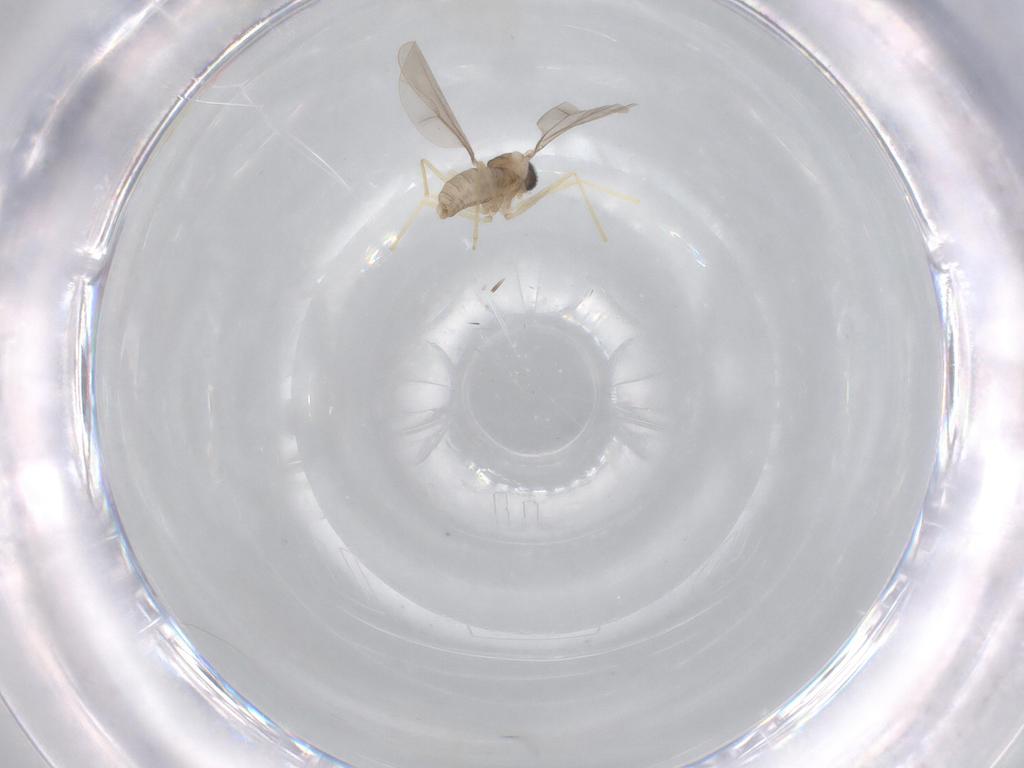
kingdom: Animalia
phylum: Arthropoda
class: Insecta
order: Diptera
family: Cecidomyiidae
